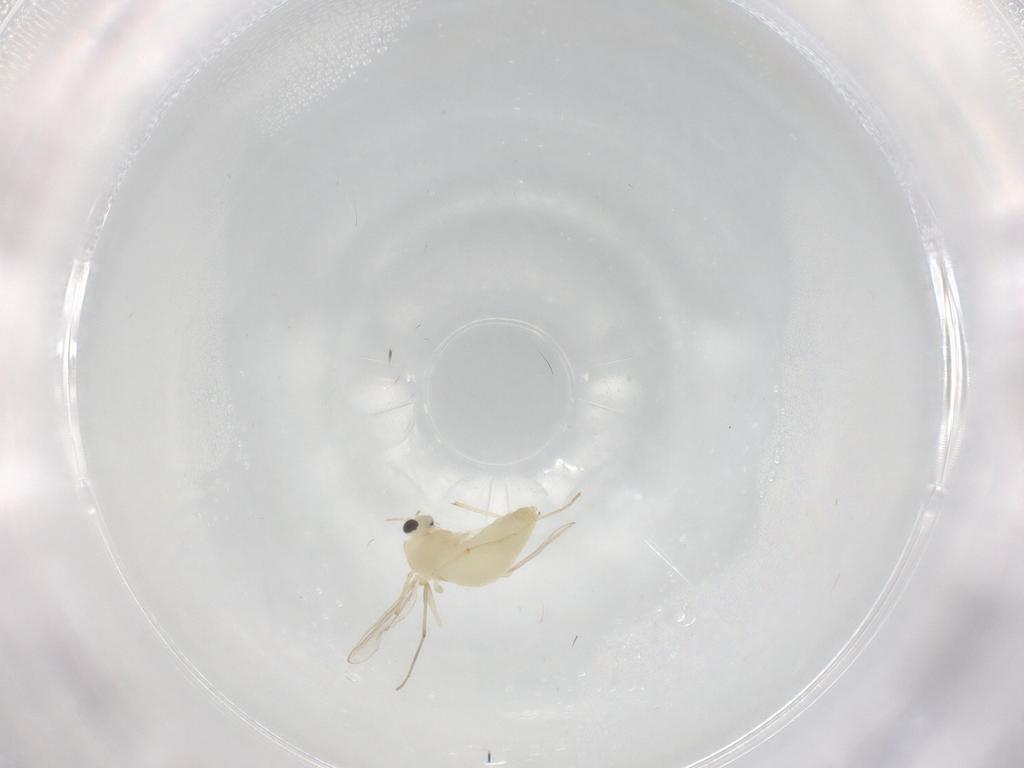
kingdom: Animalia
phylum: Arthropoda
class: Insecta
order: Diptera
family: Chironomidae
